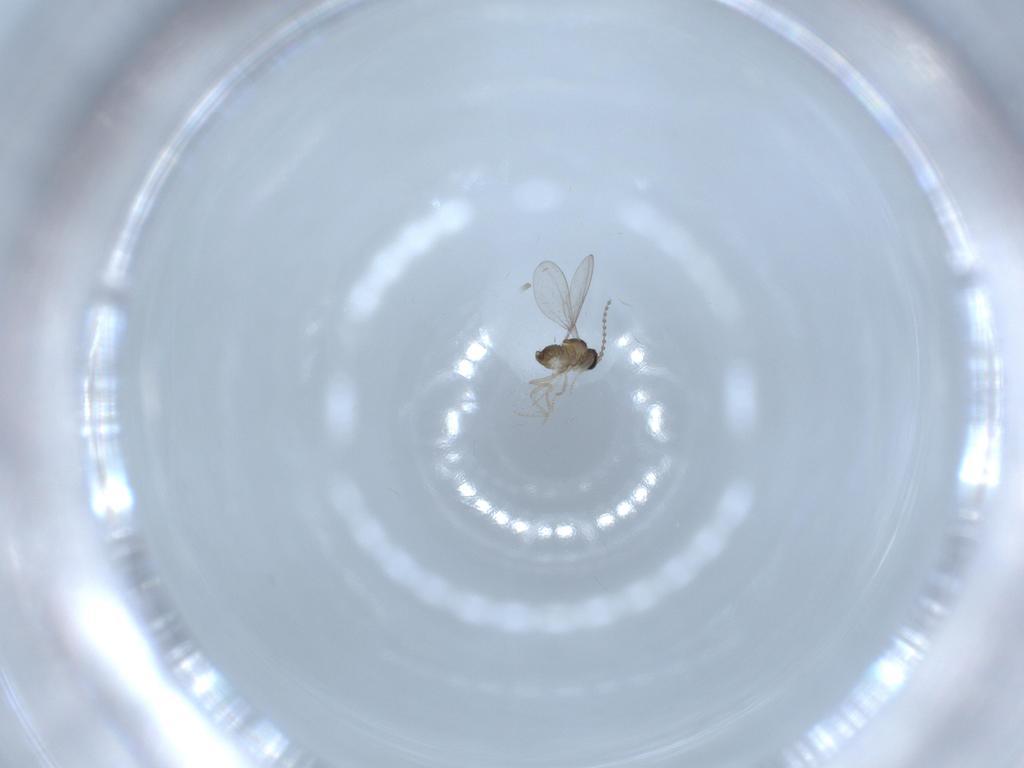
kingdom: Animalia
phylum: Arthropoda
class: Insecta
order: Diptera
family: Cecidomyiidae
